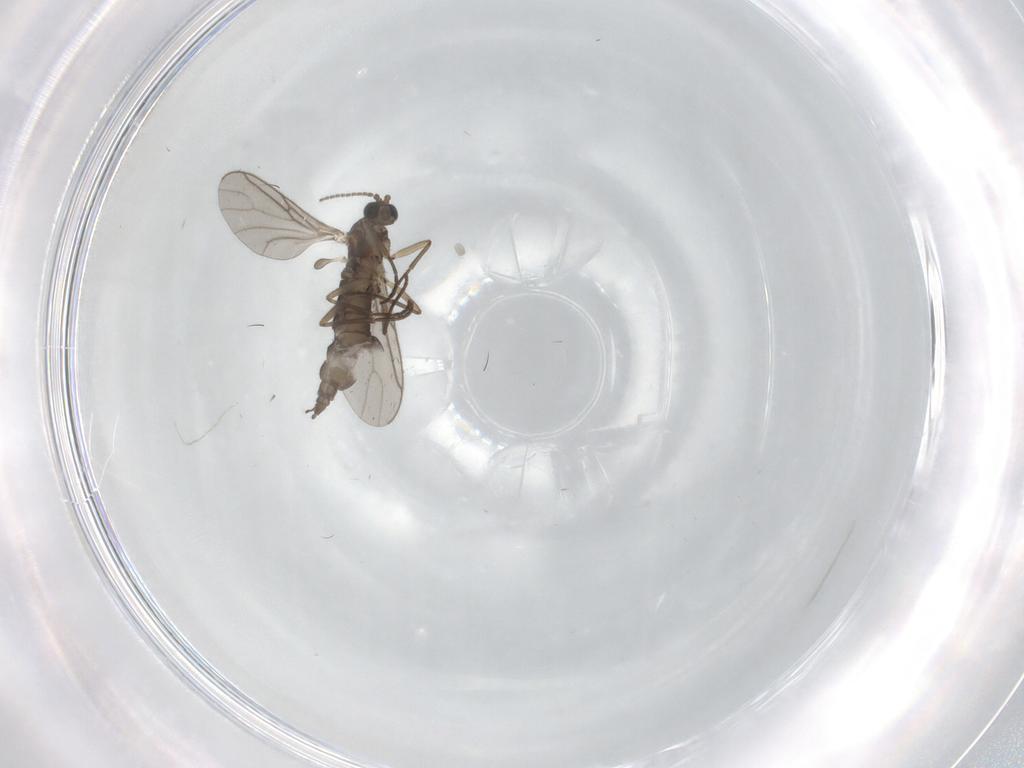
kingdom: Animalia
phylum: Arthropoda
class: Insecta
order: Diptera
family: Sciaridae
